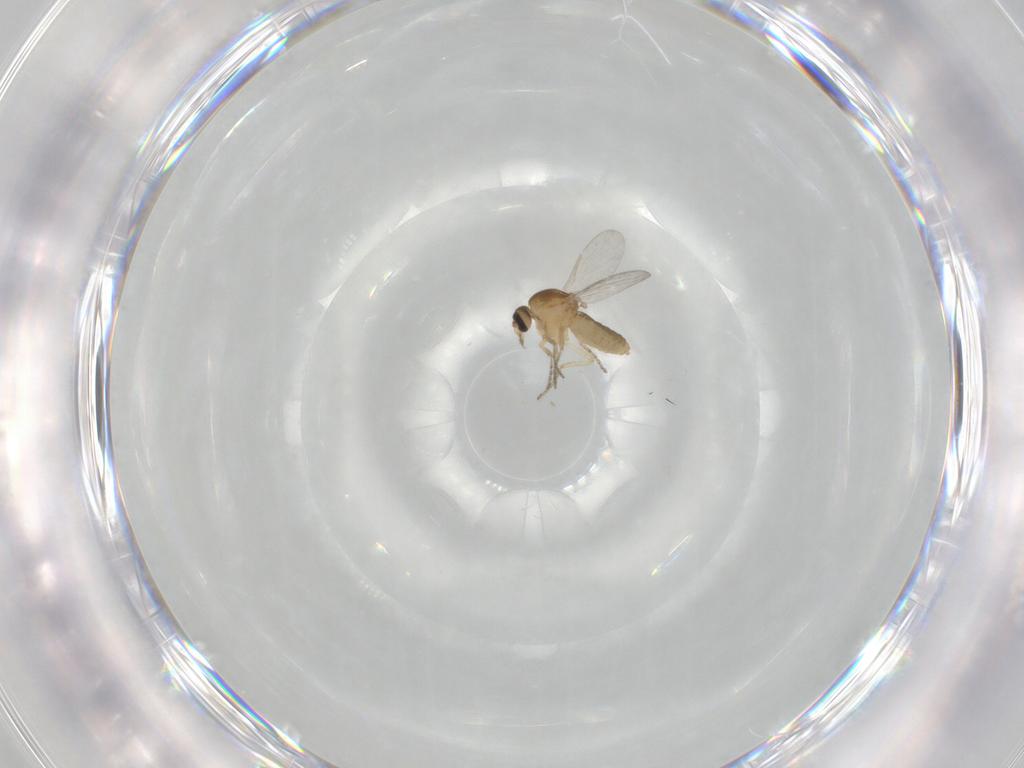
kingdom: Animalia
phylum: Arthropoda
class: Insecta
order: Diptera
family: Ceratopogonidae
